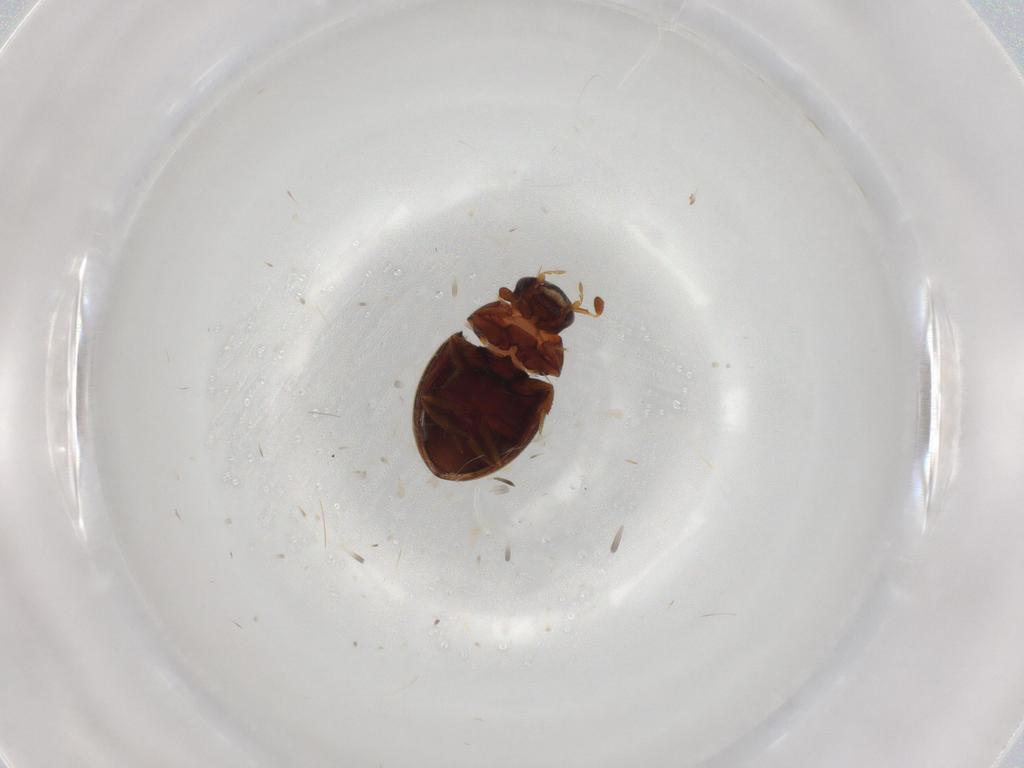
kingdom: Animalia
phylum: Arthropoda
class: Insecta
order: Coleoptera
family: Hydrophilidae
